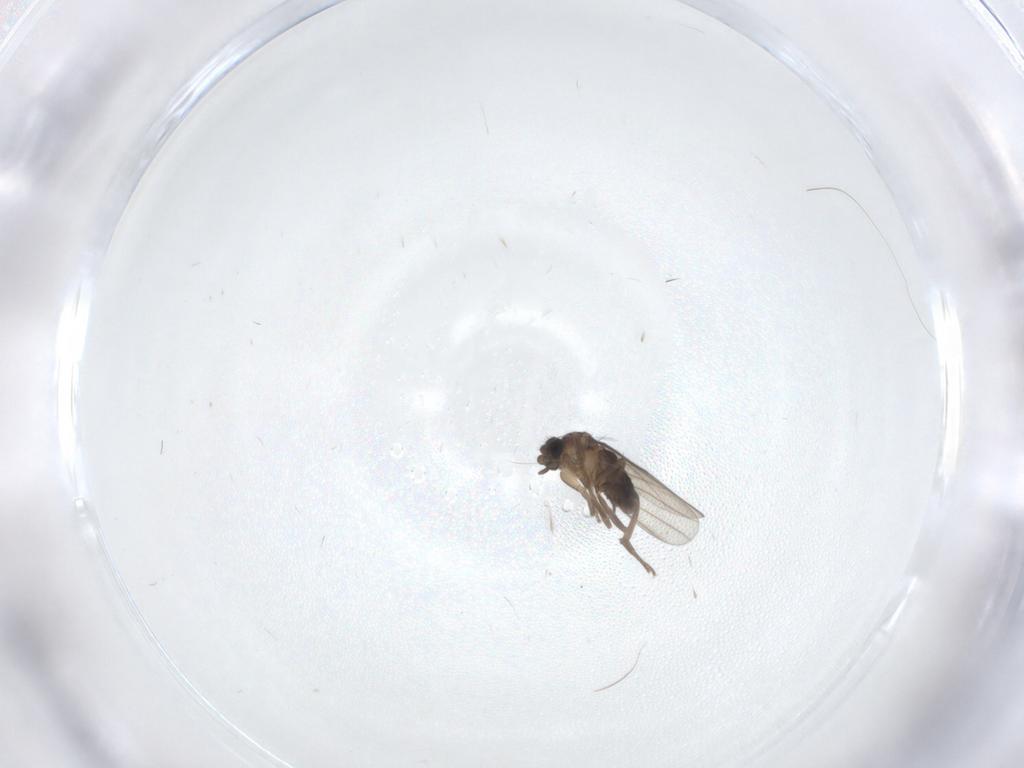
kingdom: Animalia
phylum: Arthropoda
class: Insecta
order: Diptera
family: Phoridae
